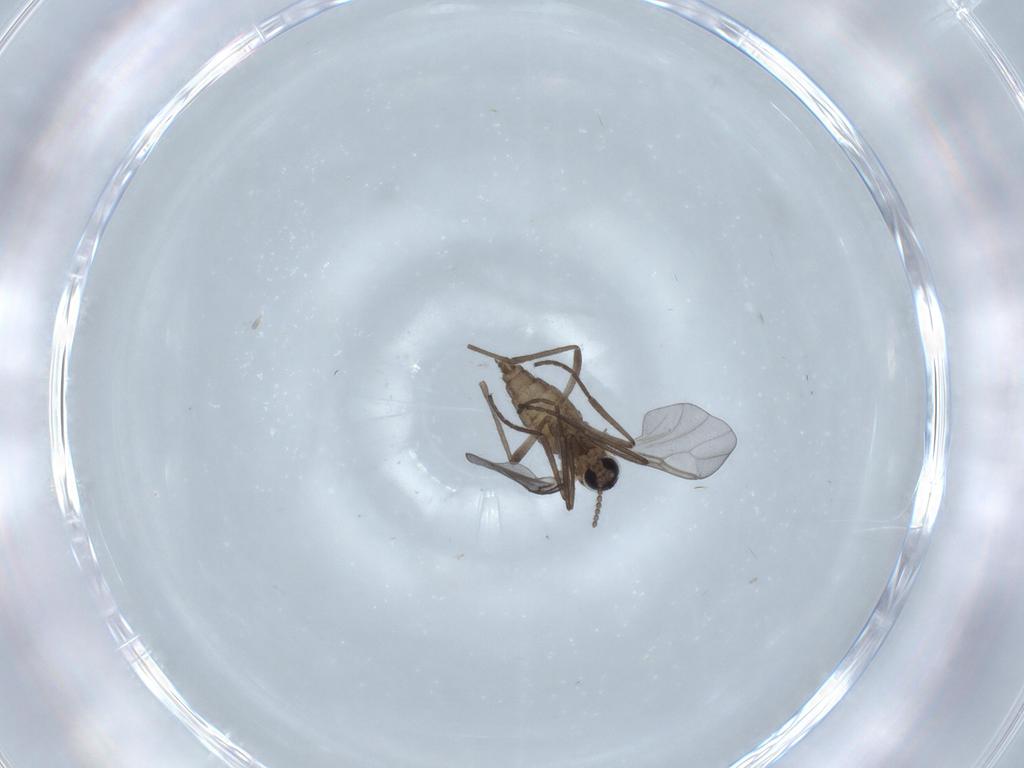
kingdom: Animalia
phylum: Arthropoda
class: Insecta
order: Diptera
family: Cecidomyiidae
